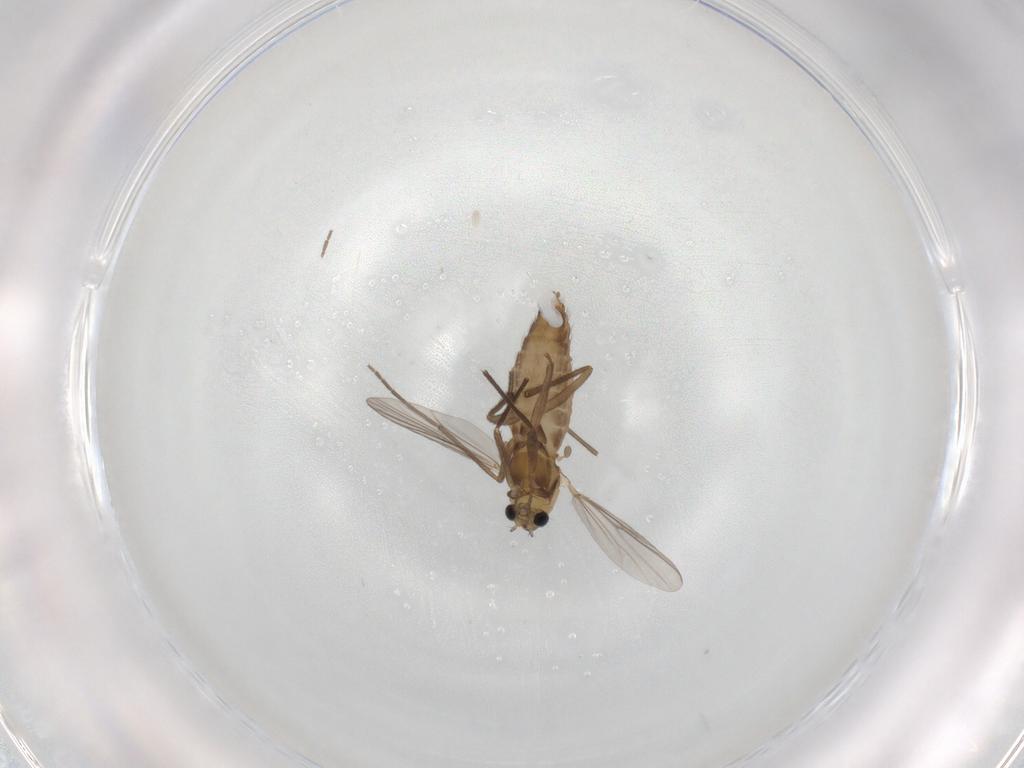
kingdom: Animalia
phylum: Arthropoda
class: Insecta
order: Diptera
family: Chironomidae
